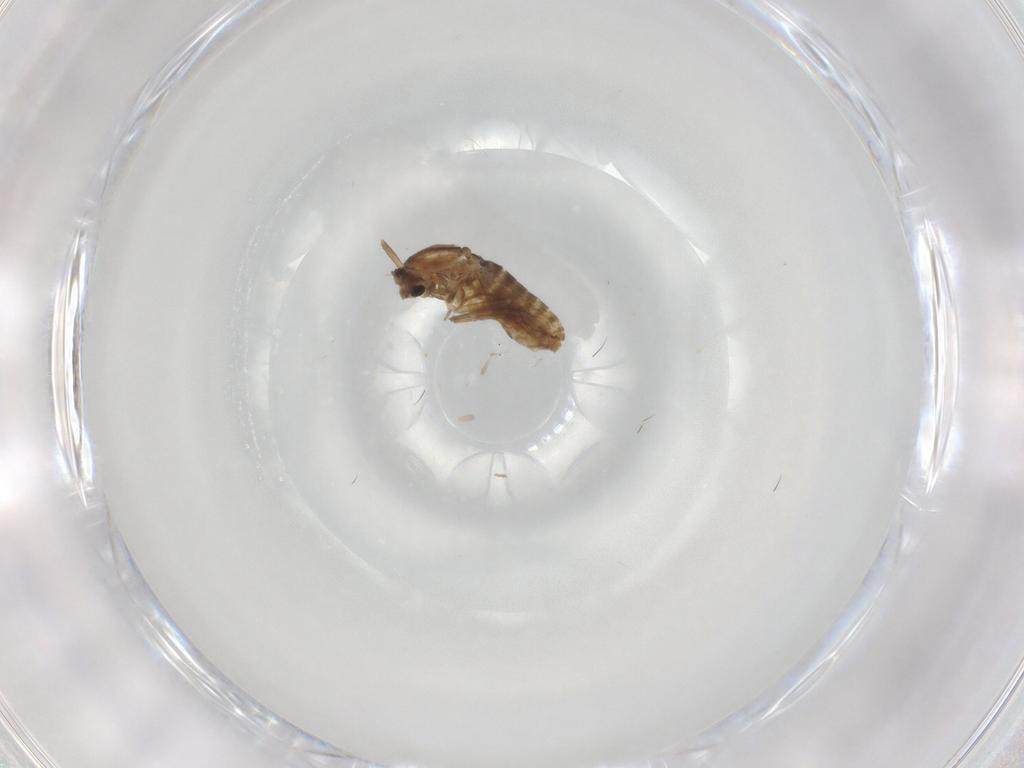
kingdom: Animalia
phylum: Arthropoda
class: Insecta
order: Diptera
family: Chironomidae
